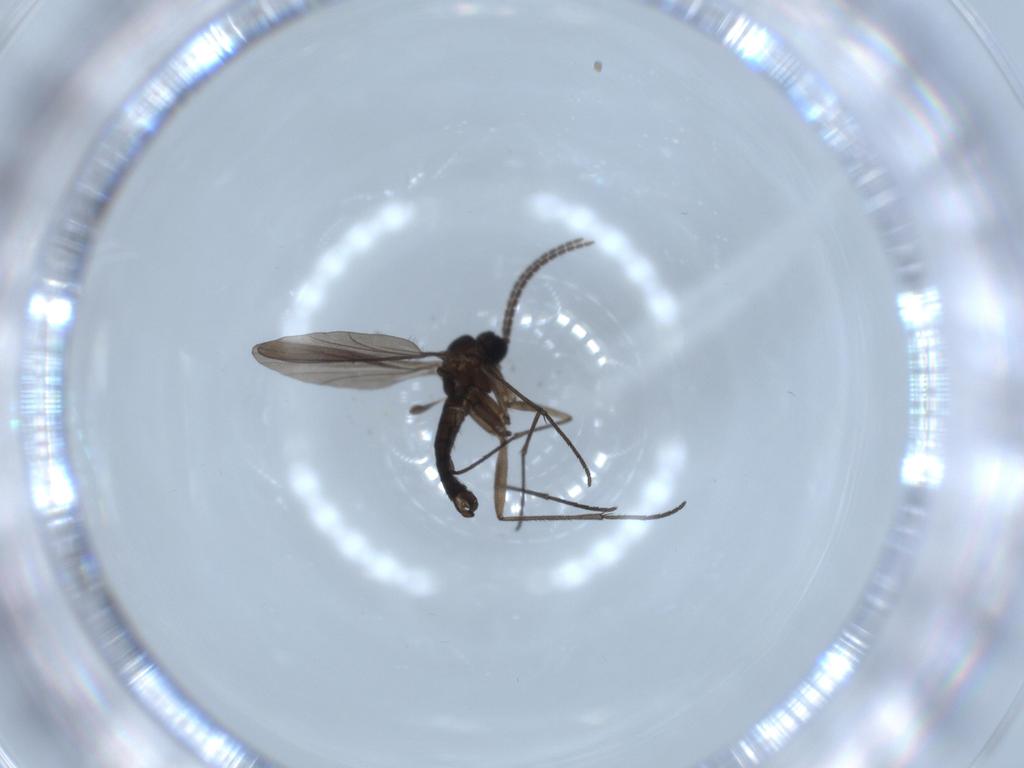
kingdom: Animalia
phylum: Arthropoda
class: Insecta
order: Diptera
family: Sciaridae
